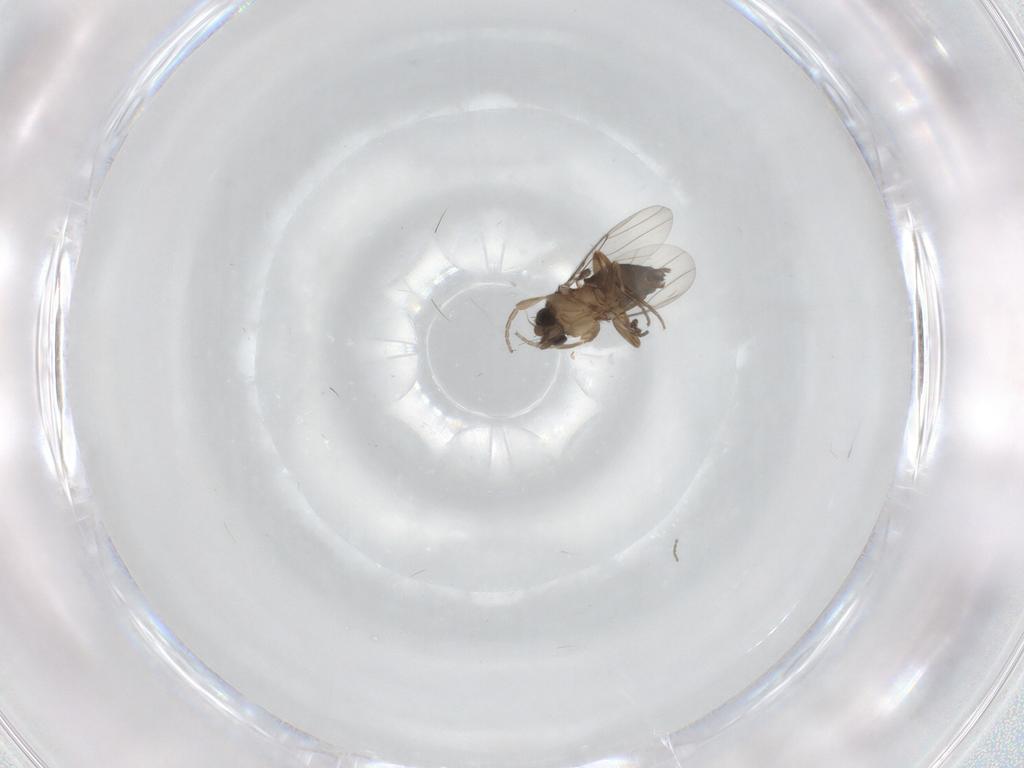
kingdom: Animalia
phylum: Arthropoda
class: Insecta
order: Diptera
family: Phoridae
